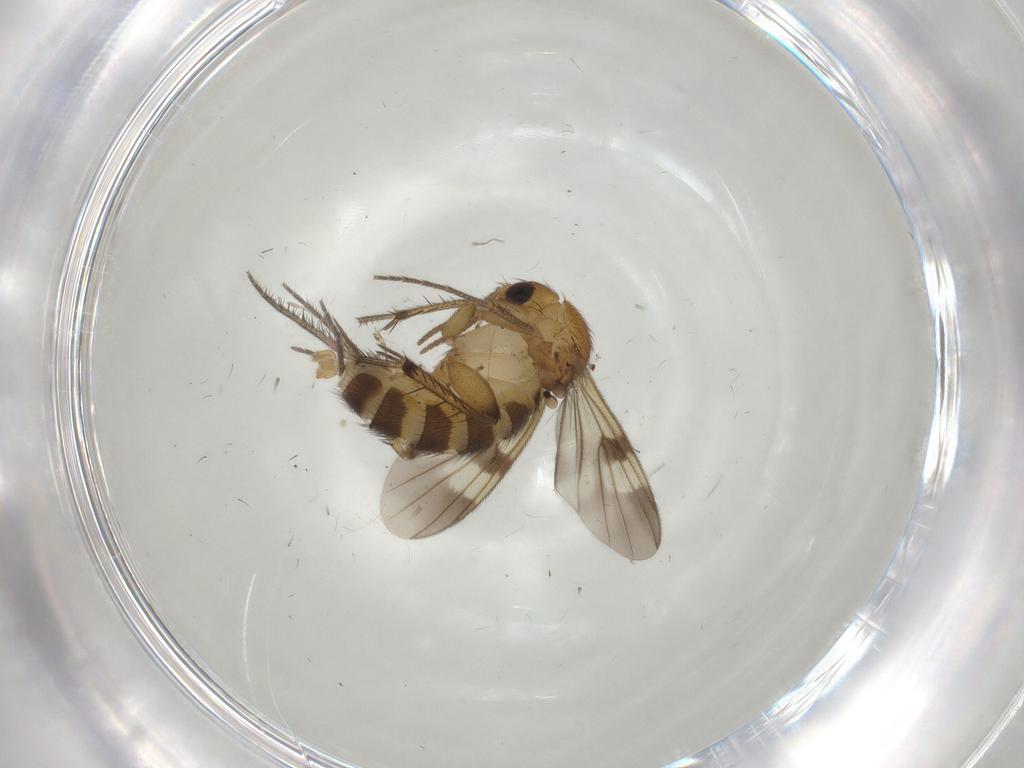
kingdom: Animalia
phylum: Arthropoda
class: Insecta
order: Diptera
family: Mycetophilidae
